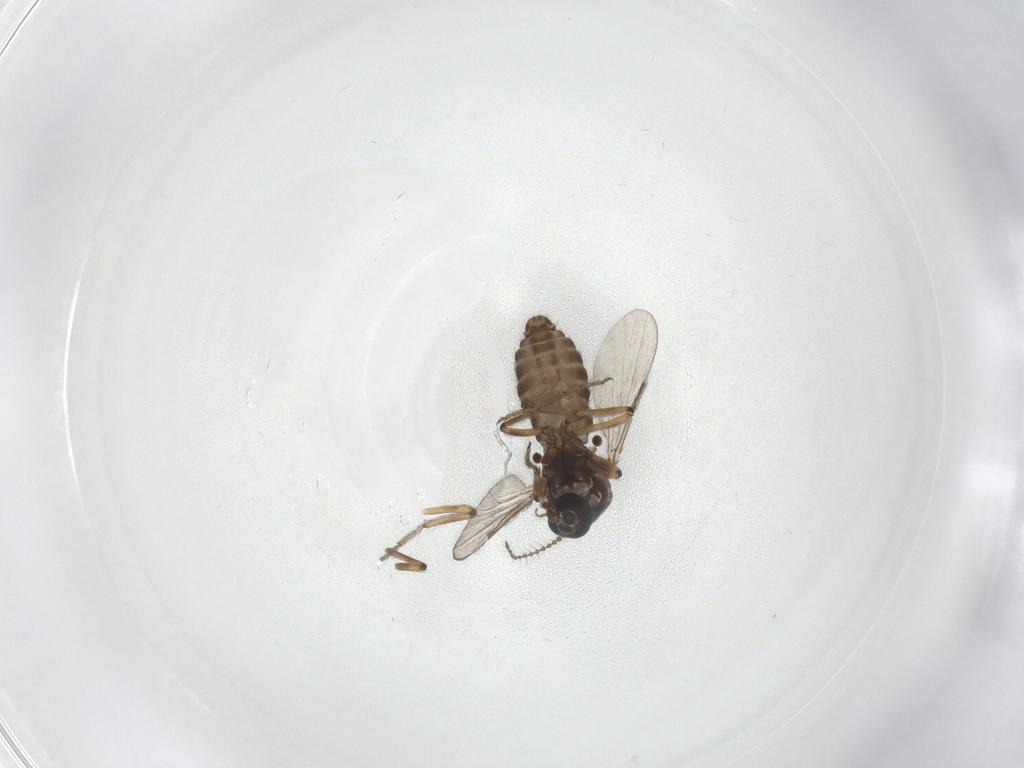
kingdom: Animalia
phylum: Arthropoda
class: Insecta
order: Diptera
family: Ceratopogonidae
